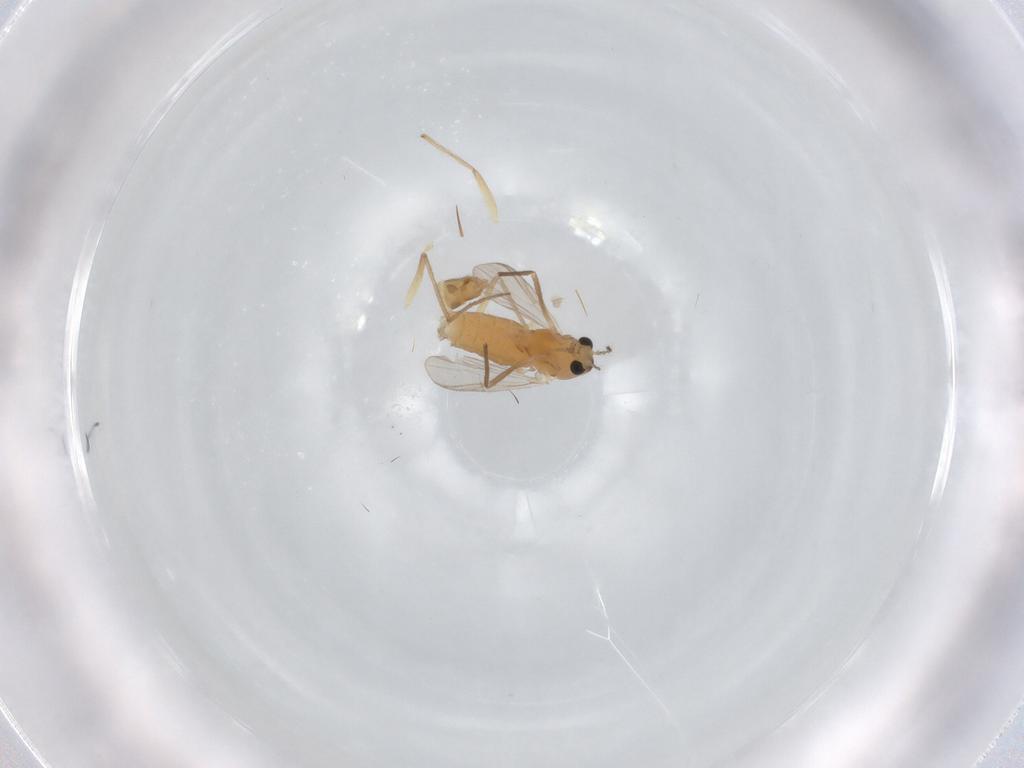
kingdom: Animalia
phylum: Arthropoda
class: Insecta
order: Diptera
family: Chironomidae
